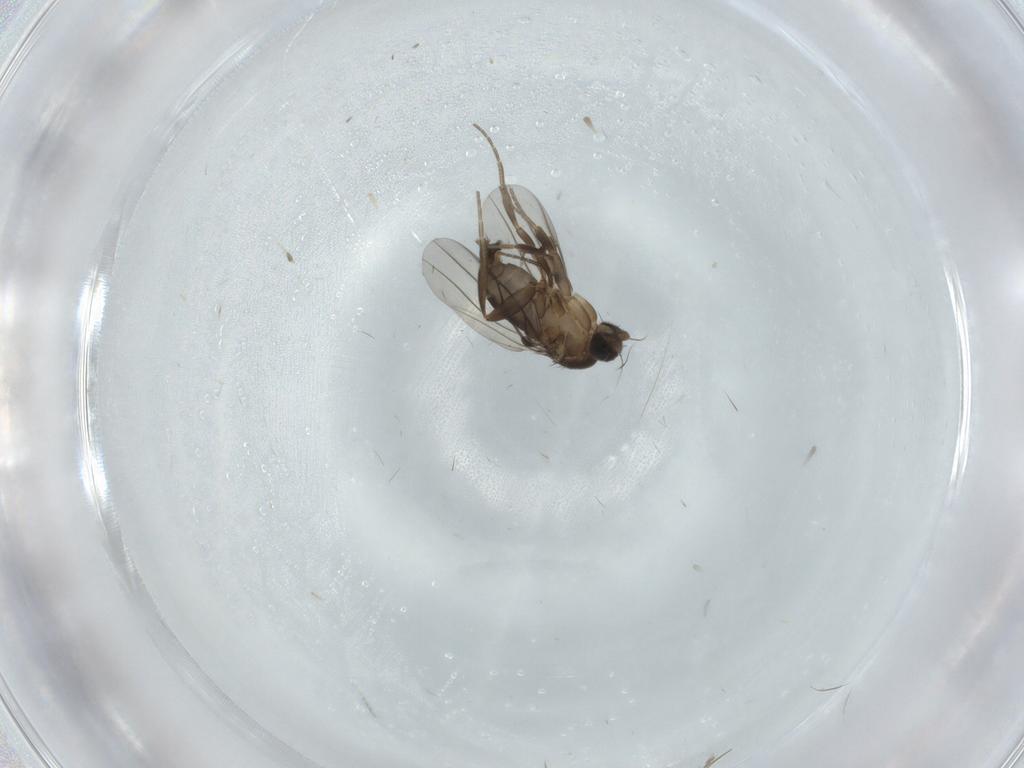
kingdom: Animalia
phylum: Arthropoda
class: Insecta
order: Diptera
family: Phoridae
